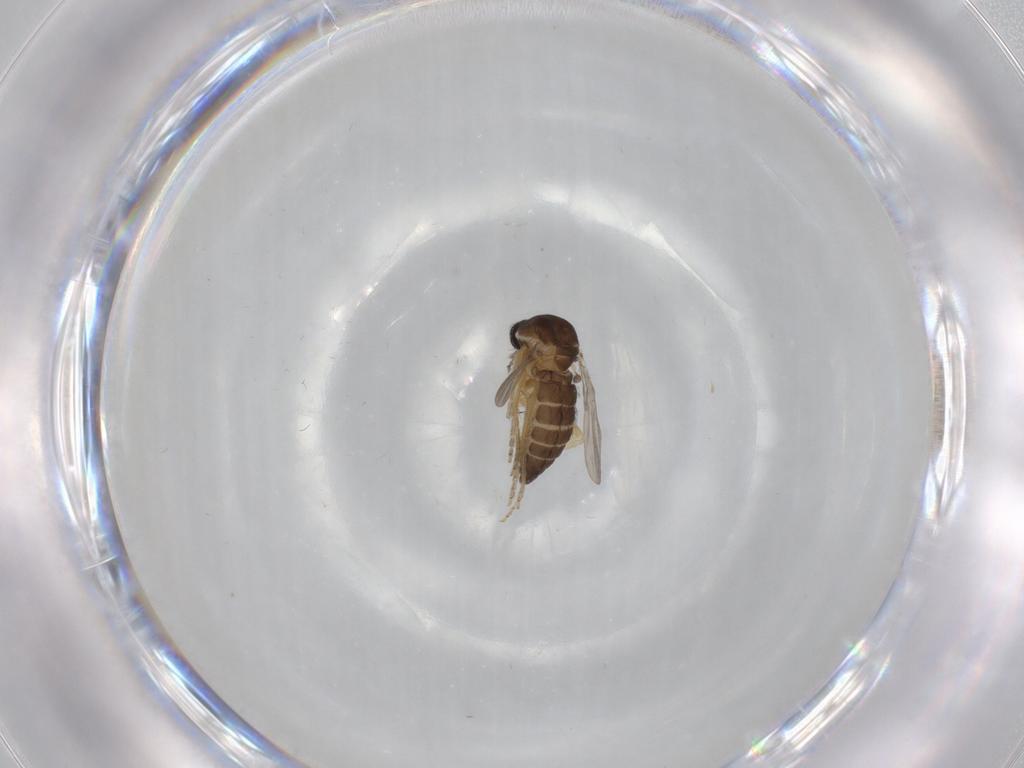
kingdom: Animalia
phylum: Arthropoda
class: Insecta
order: Diptera
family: Ceratopogonidae
